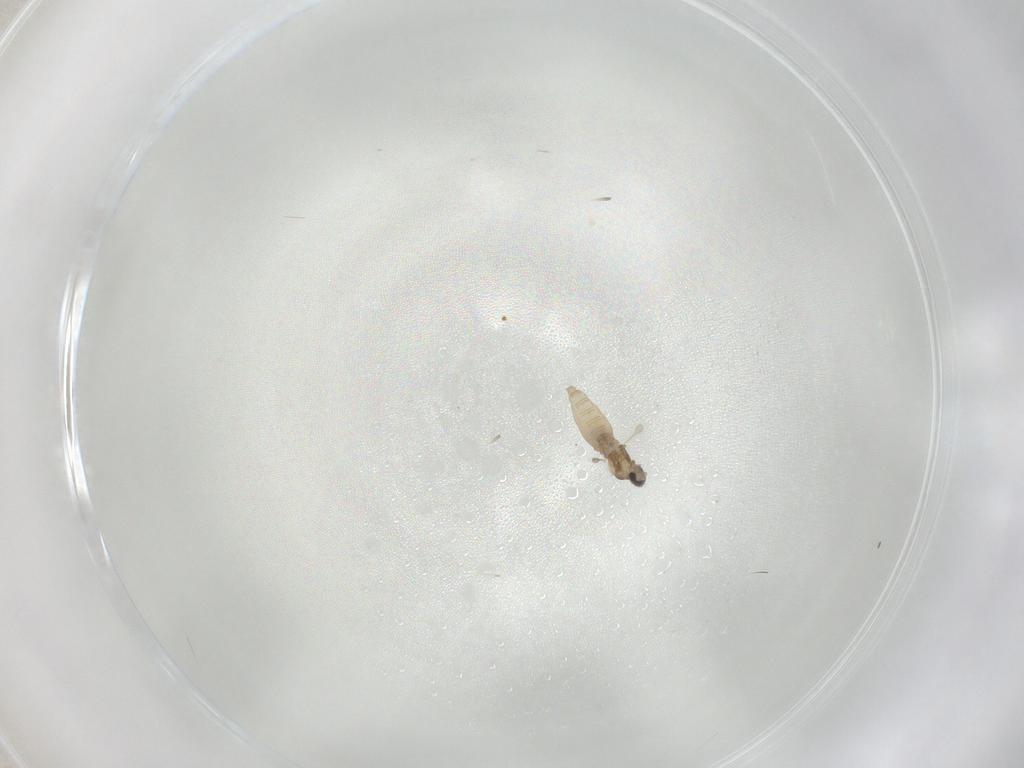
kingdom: Animalia
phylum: Arthropoda
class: Insecta
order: Diptera
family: Cecidomyiidae
